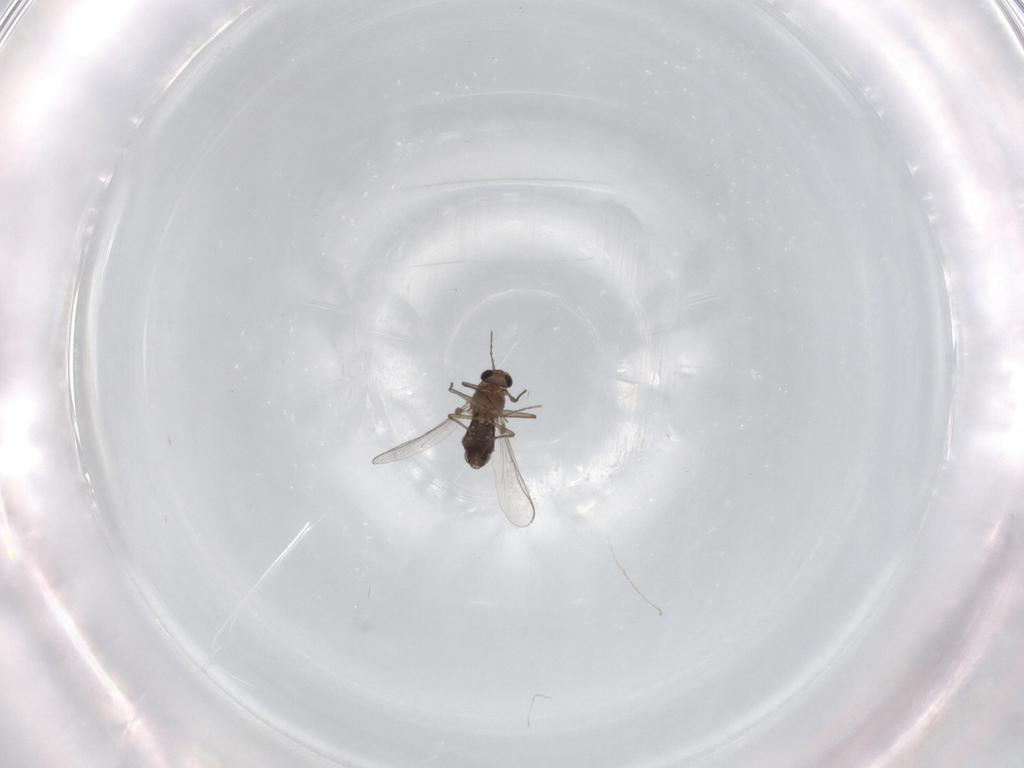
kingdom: Animalia
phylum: Arthropoda
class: Insecta
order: Diptera
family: Chironomidae
